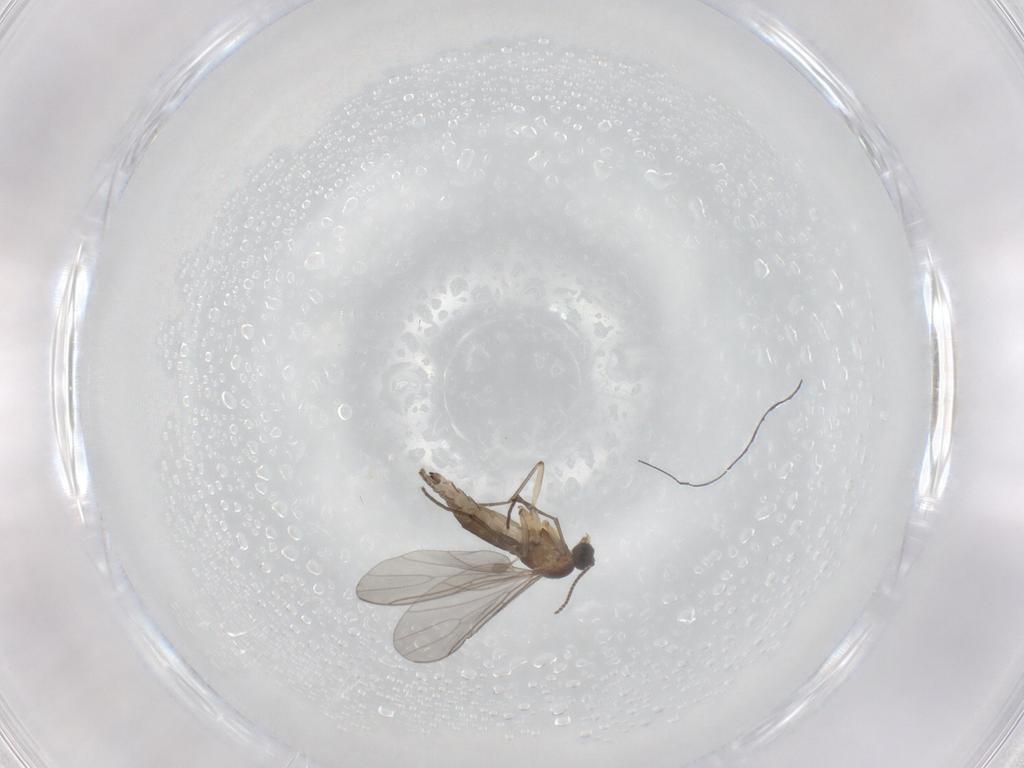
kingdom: Animalia
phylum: Arthropoda
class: Insecta
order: Diptera
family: Sciaridae
